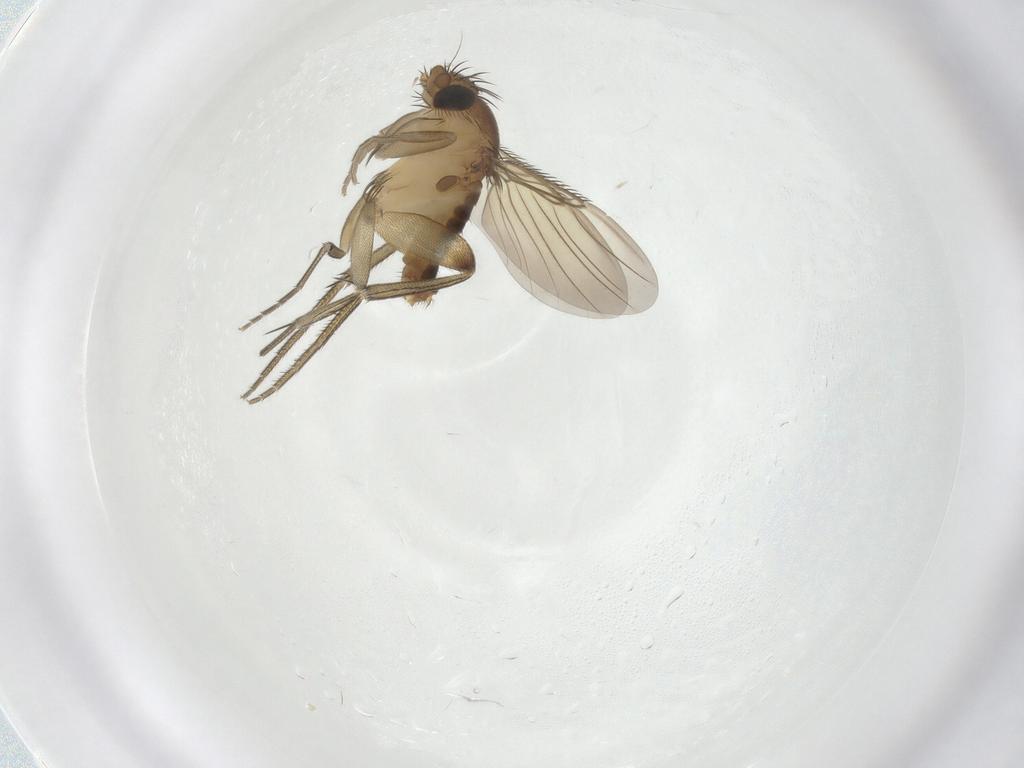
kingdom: Animalia
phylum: Arthropoda
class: Insecta
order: Diptera
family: Phoridae
